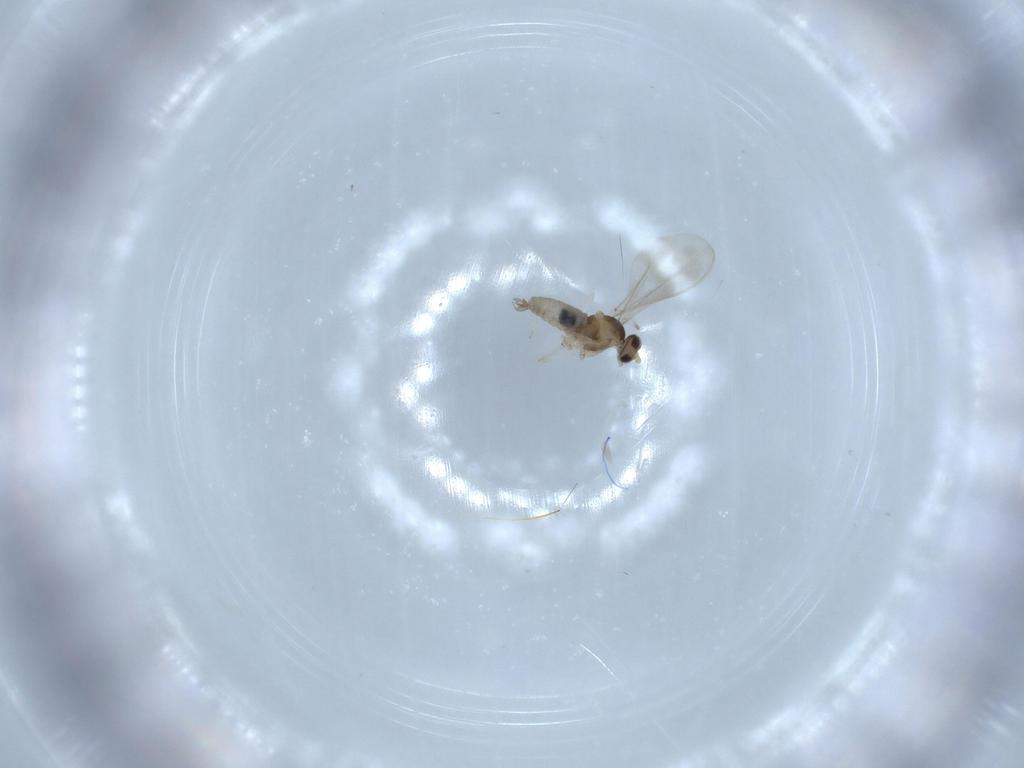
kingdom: Animalia
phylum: Arthropoda
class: Insecta
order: Diptera
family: Cecidomyiidae
